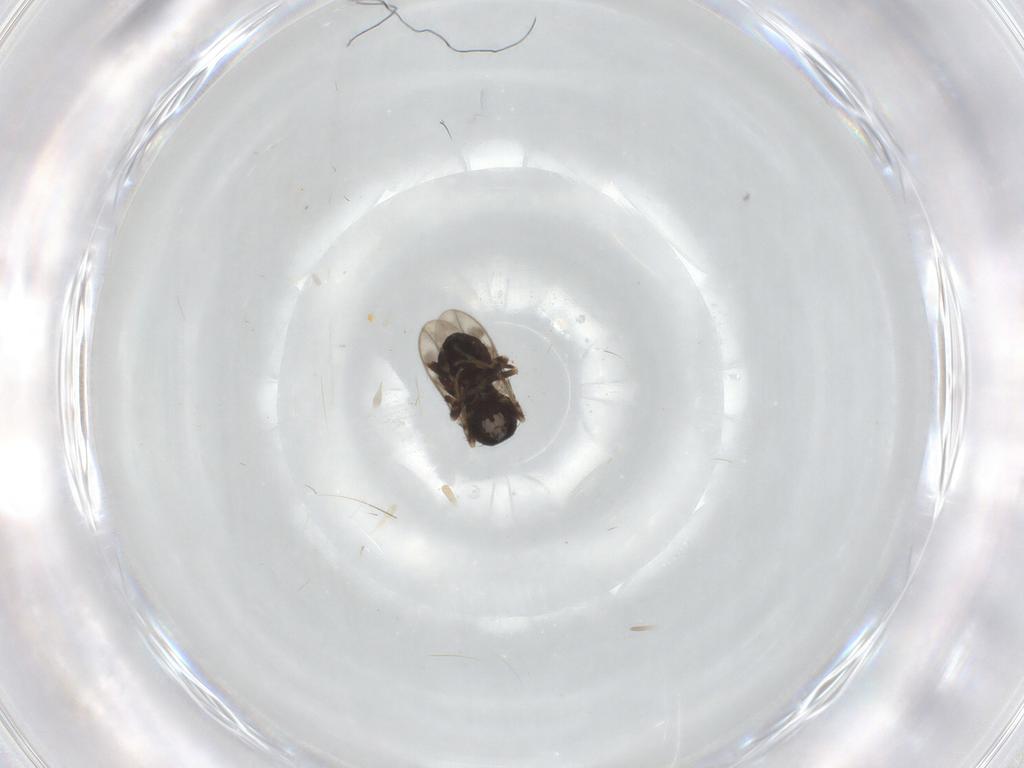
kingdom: Animalia
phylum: Arthropoda
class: Insecta
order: Diptera
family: Sphaeroceridae
